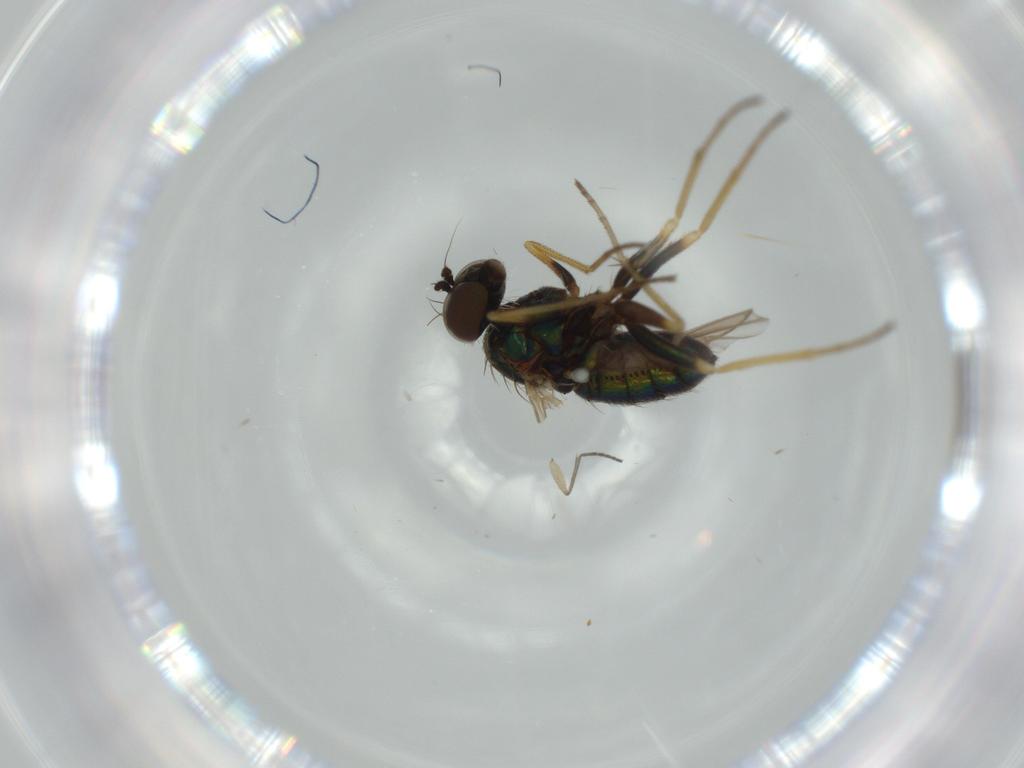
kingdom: Animalia
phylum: Arthropoda
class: Insecta
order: Diptera
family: Dolichopodidae
